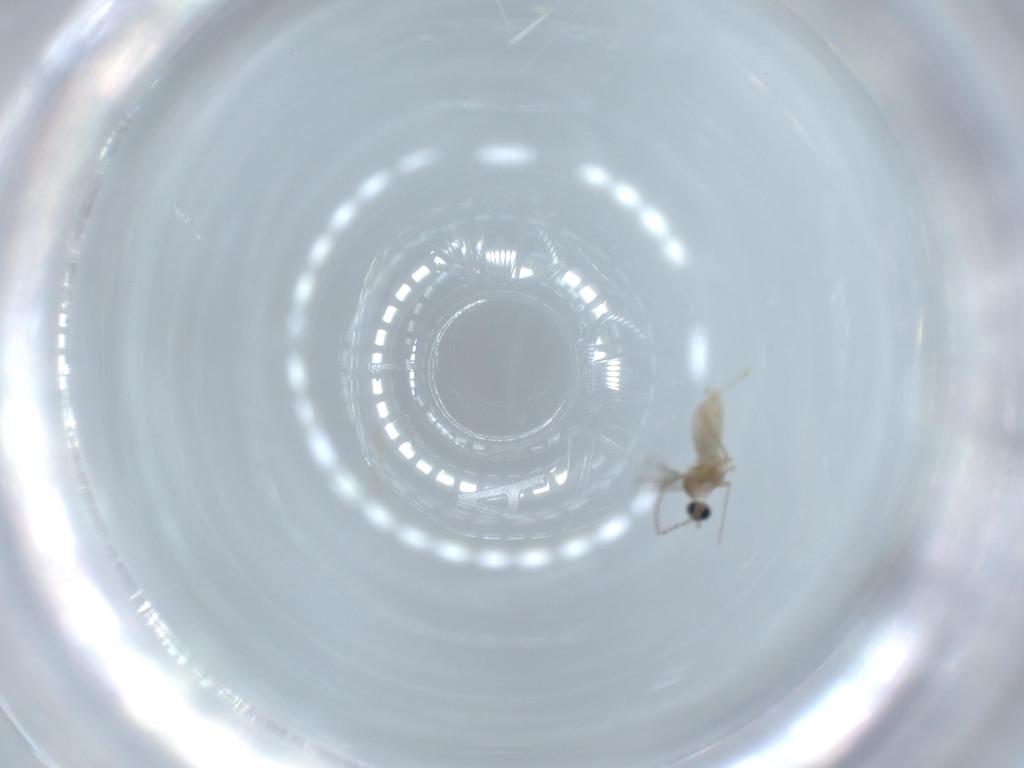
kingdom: Animalia
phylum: Arthropoda
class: Insecta
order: Diptera
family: Cecidomyiidae
